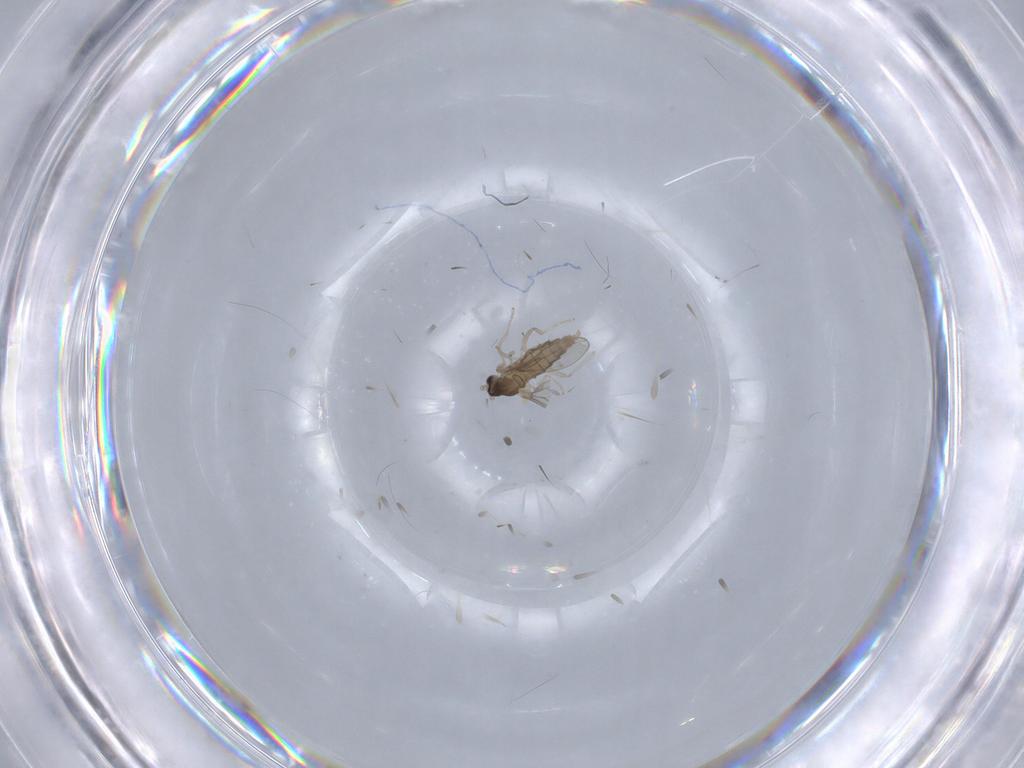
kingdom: Animalia
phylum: Arthropoda
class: Insecta
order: Diptera
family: Cecidomyiidae
